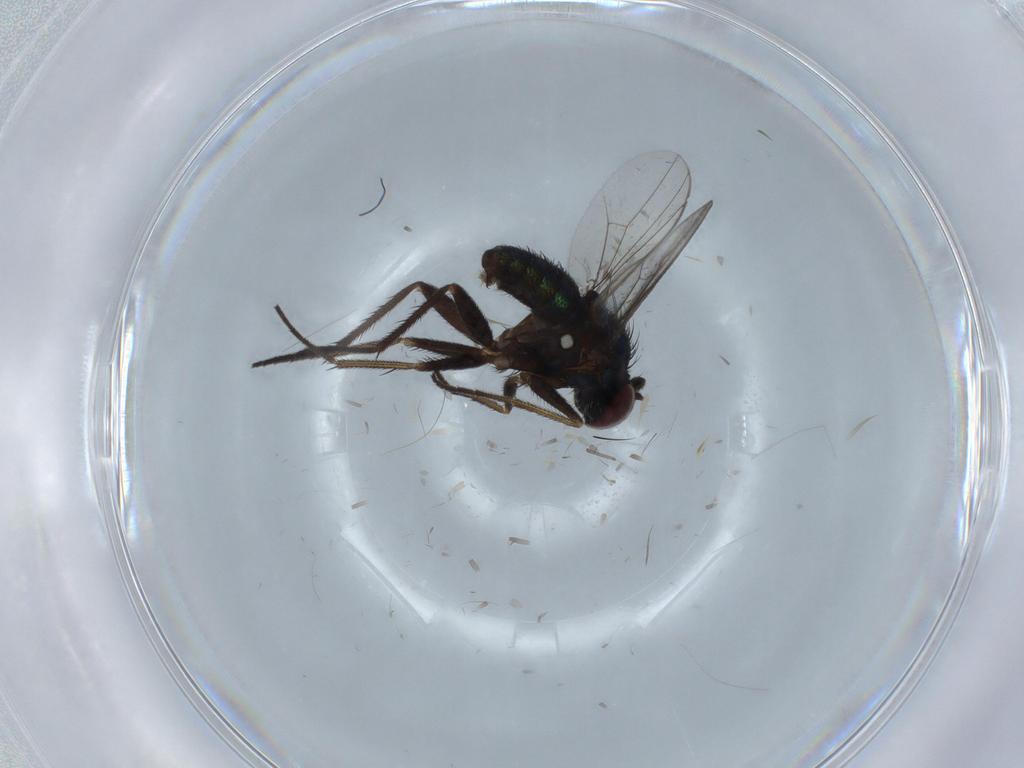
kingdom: Animalia
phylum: Arthropoda
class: Insecta
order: Diptera
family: Dolichopodidae
